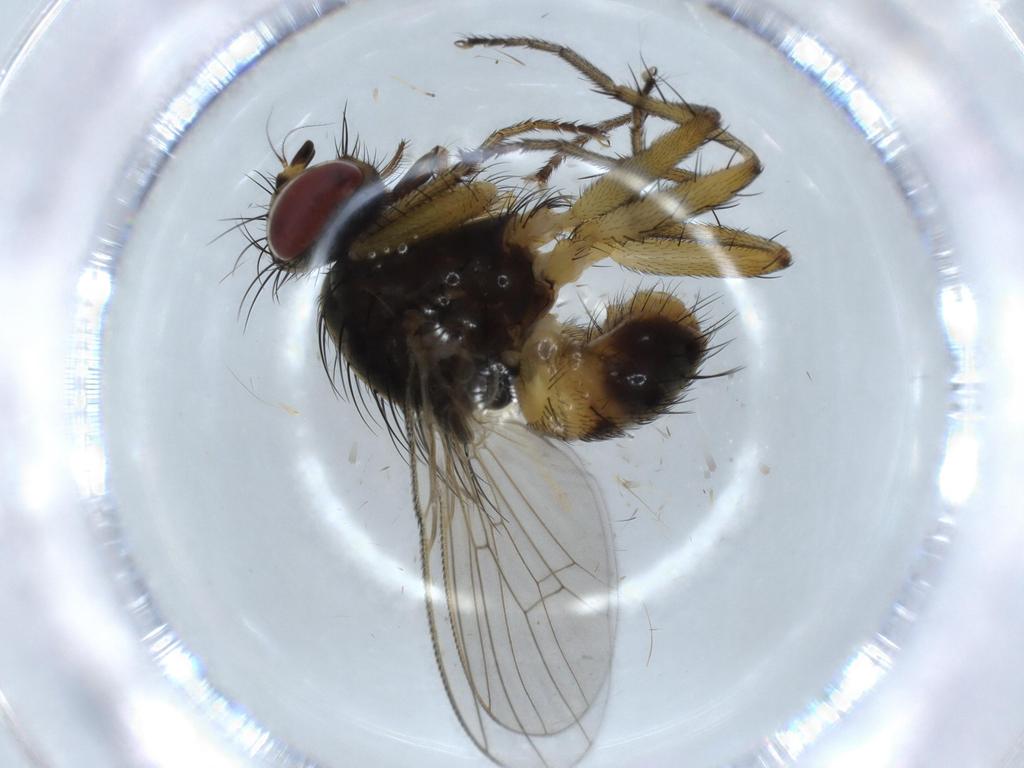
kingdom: Animalia
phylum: Arthropoda
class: Insecta
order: Diptera
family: Muscidae
